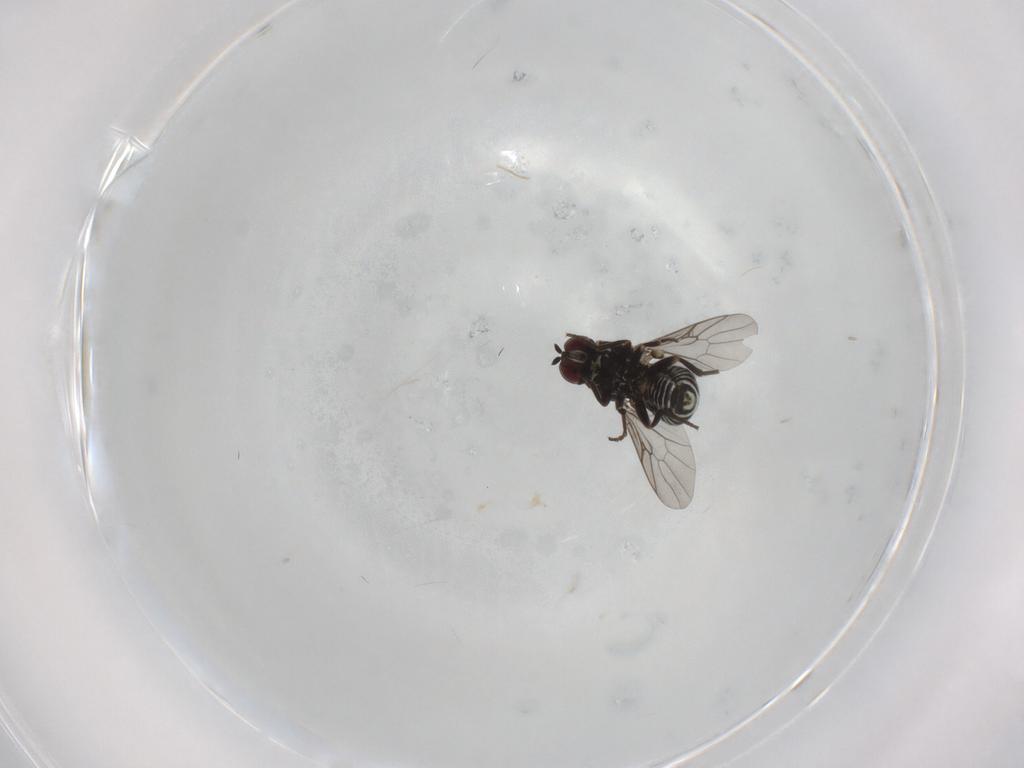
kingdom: Animalia
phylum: Arthropoda
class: Insecta
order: Diptera
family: Mythicomyiidae
